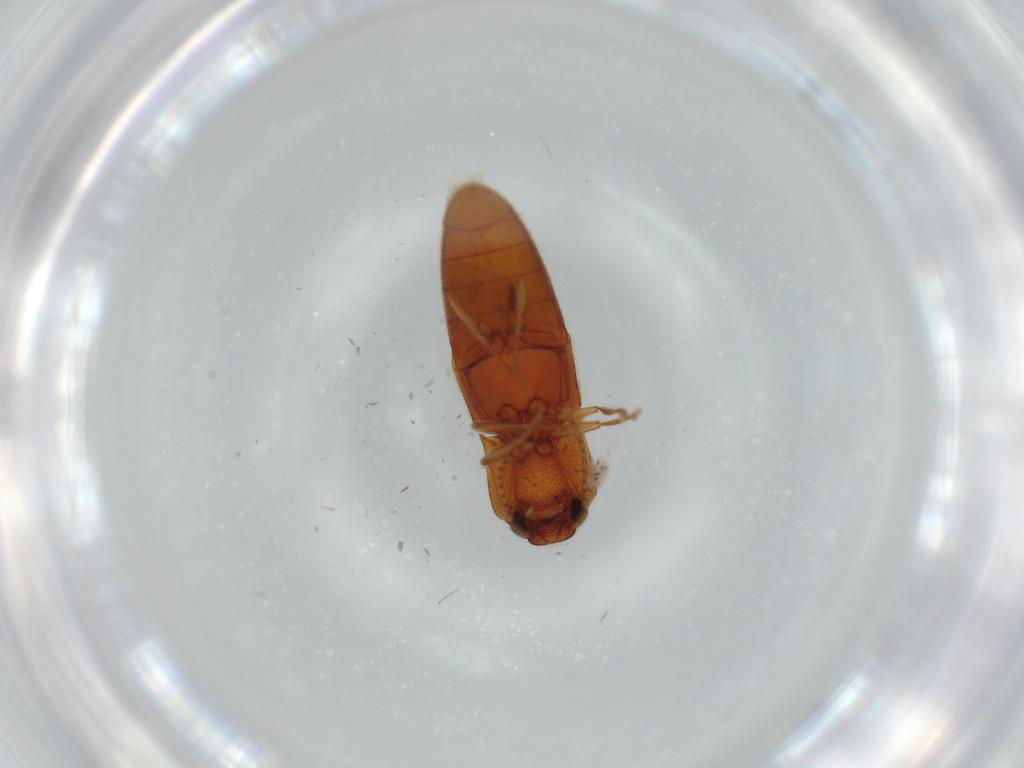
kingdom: Animalia
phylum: Arthropoda
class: Insecta
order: Coleoptera
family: Elateridae
